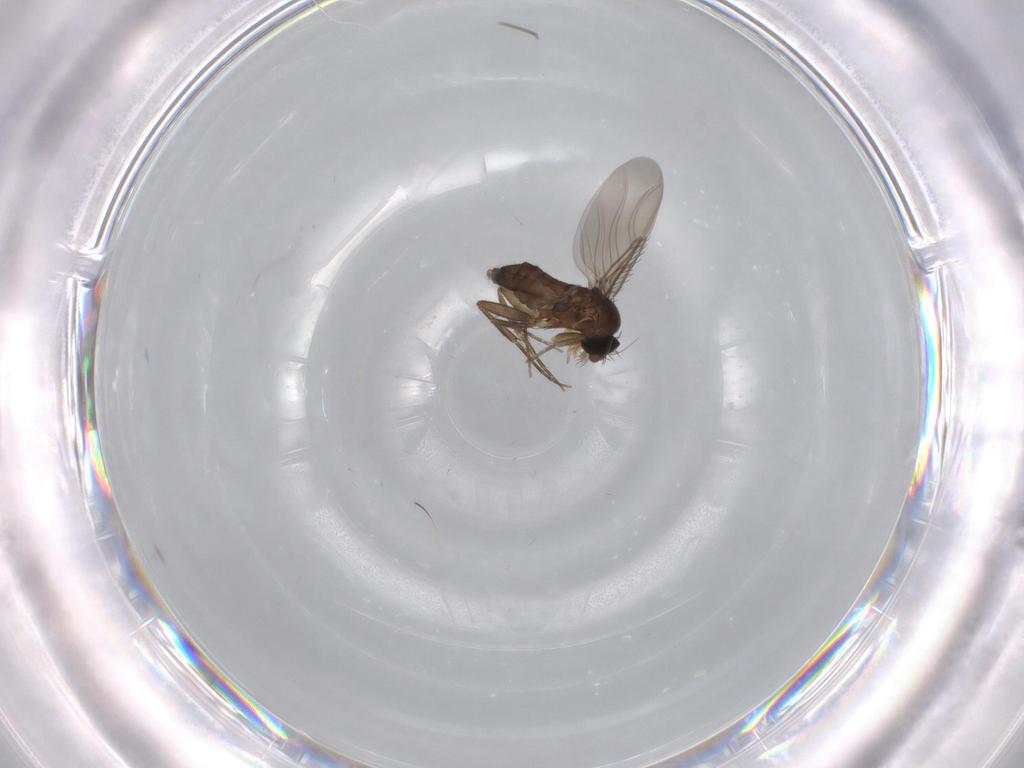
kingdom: Animalia
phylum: Arthropoda
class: Insecta
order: Diptera
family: Phoridae
